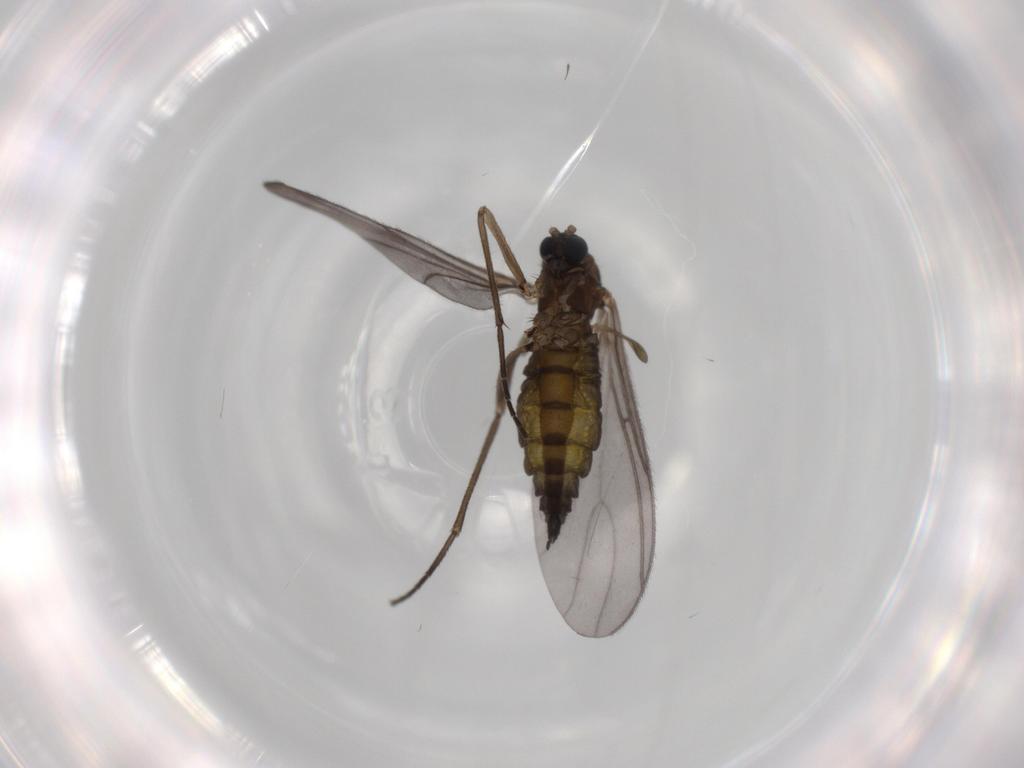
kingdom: Animalia
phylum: Arthropoda
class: Insecta
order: Diptera
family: Sciaridae
